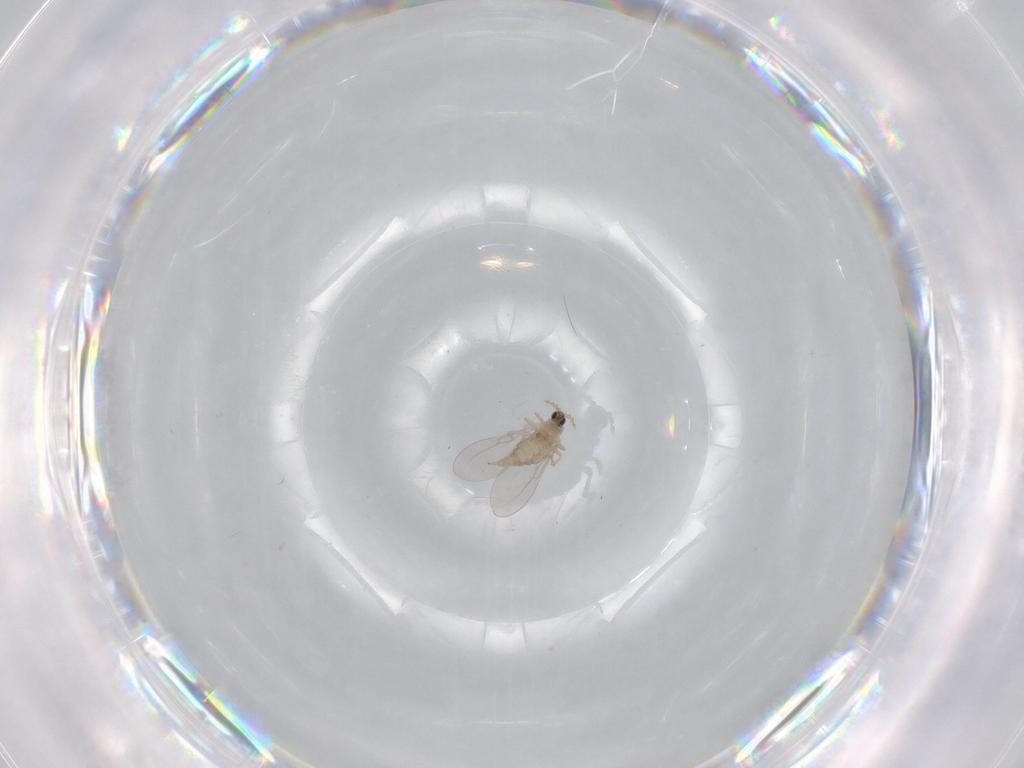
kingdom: Animalia
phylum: Arthropoda
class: Insecta
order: Diptera
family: Cecidomyiidae
